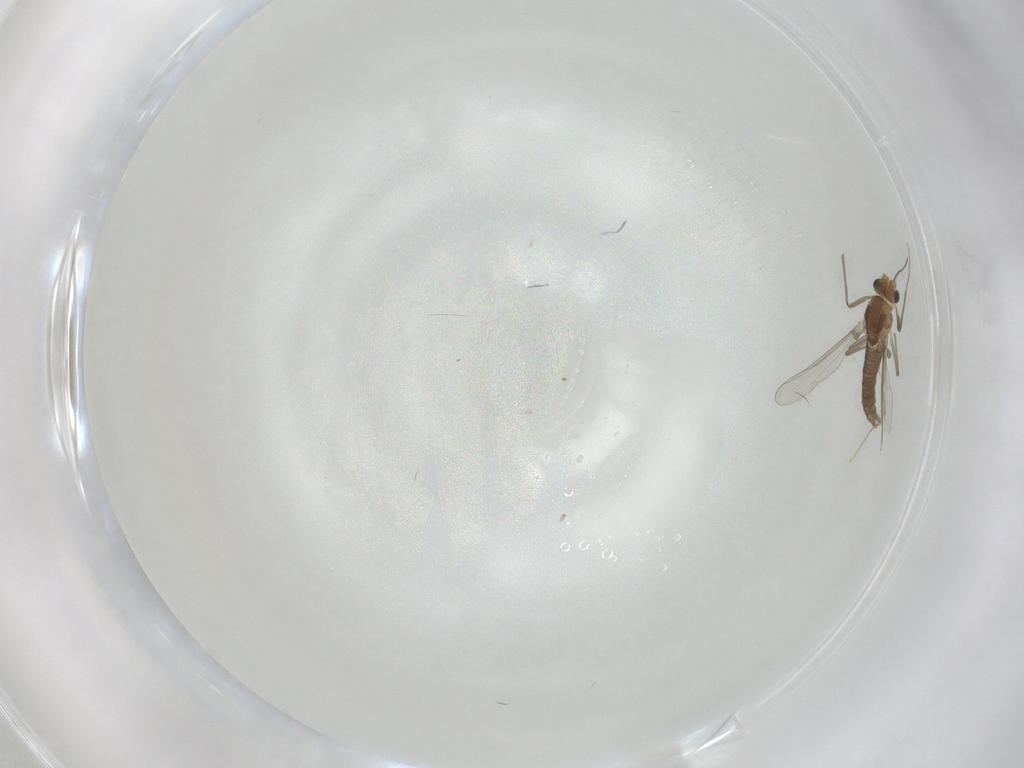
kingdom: Animalia
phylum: Arthropoda
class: Insecta
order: Diptera
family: Chironomidae
